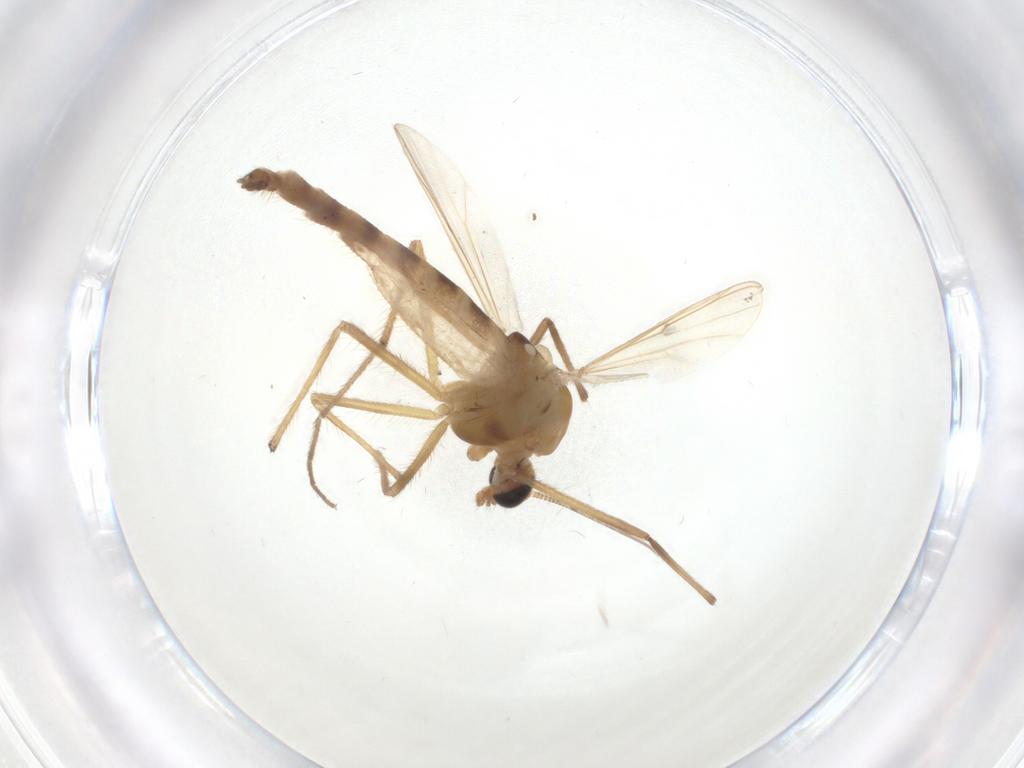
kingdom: Animalia
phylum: Arthropoda
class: Insecta
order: Diptera
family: Chironomidae
